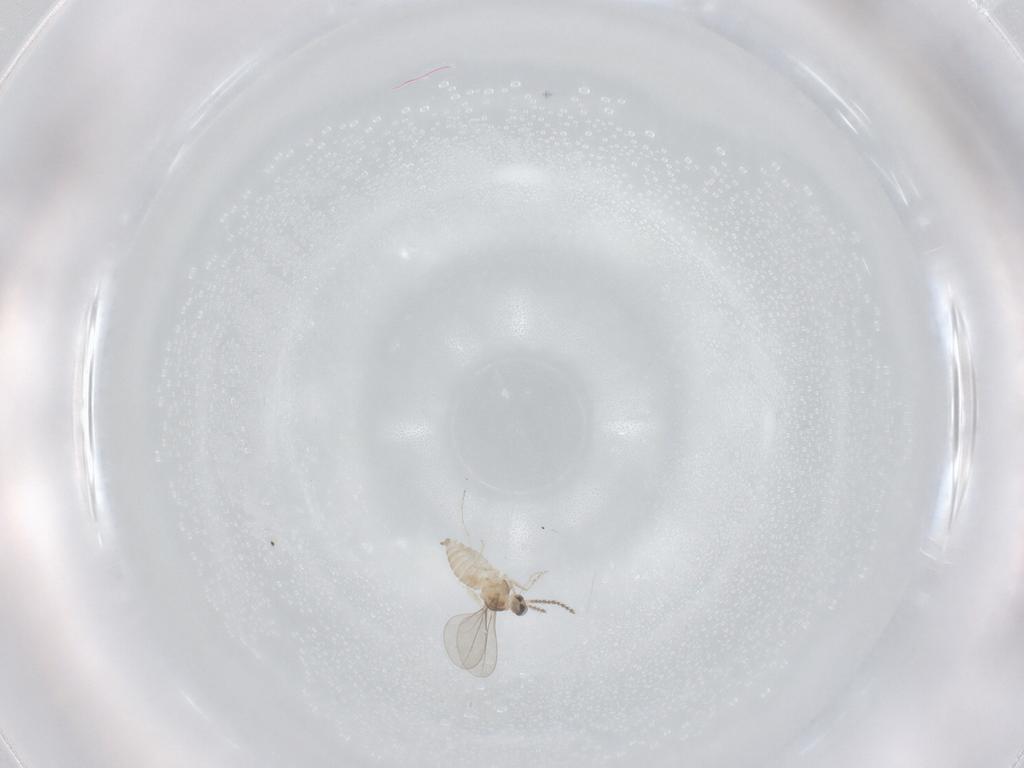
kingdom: Animalia
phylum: Arthropoda
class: Insecta
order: Diptera
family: Cecidomyiidae
